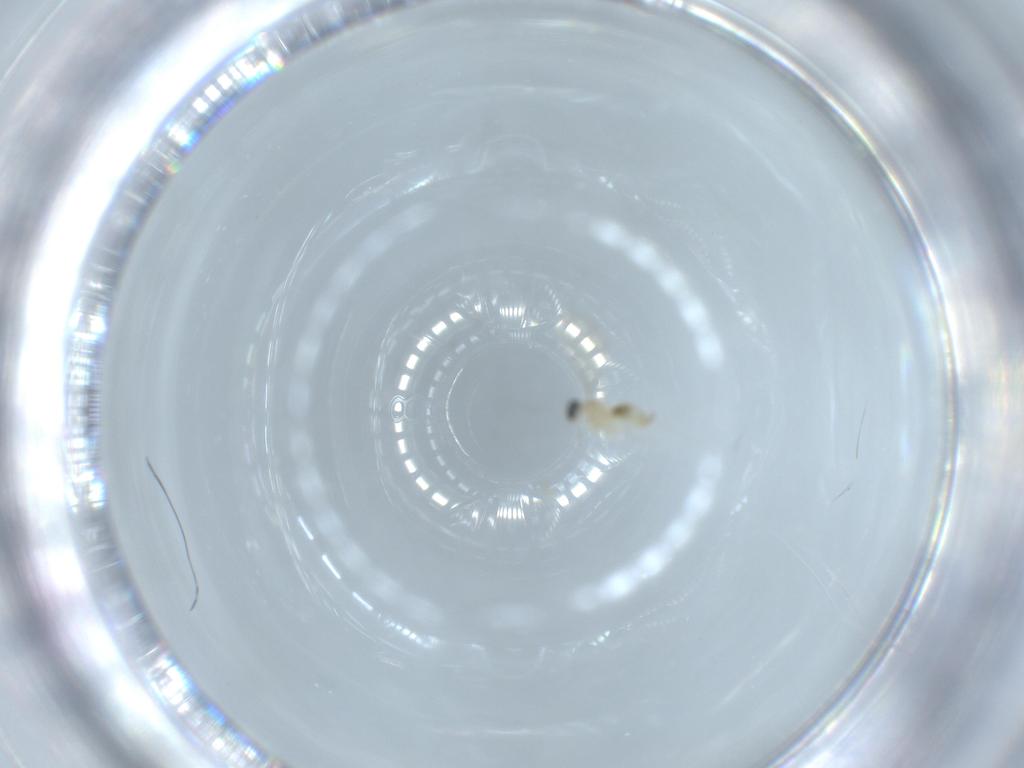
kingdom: Animalia
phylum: Arthropoda
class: Insecta
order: Diptera
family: Cecidomyiidae
